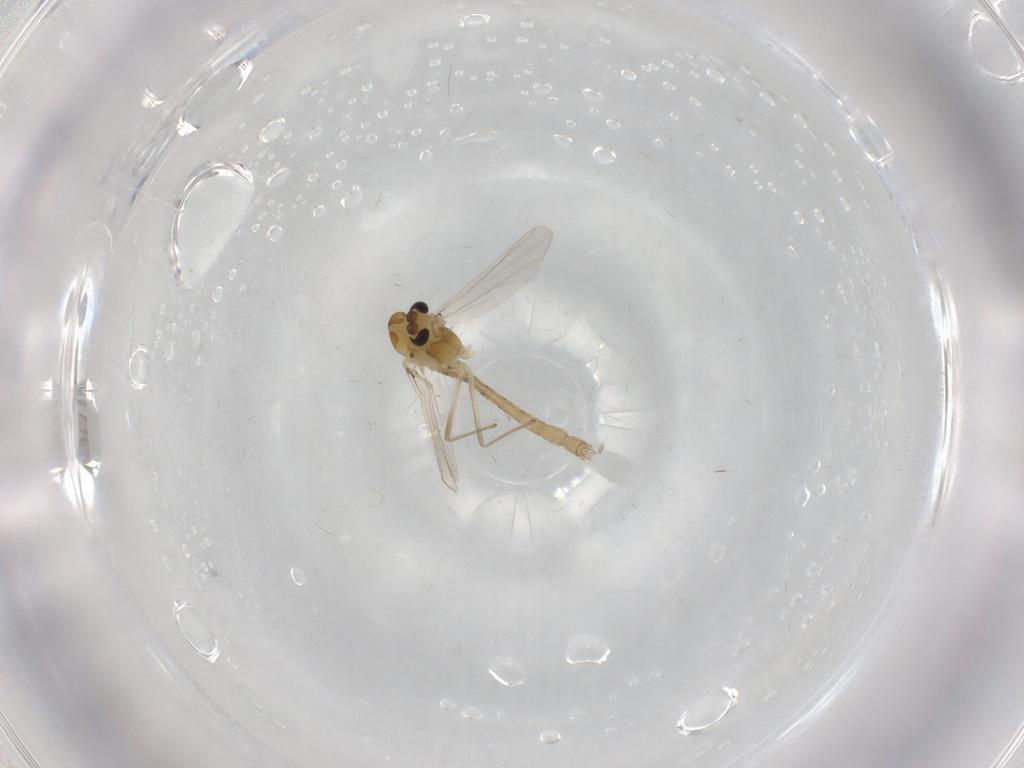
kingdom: Animalia
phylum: Arthropoda
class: Insecta
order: Diptera
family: Chironomidae
